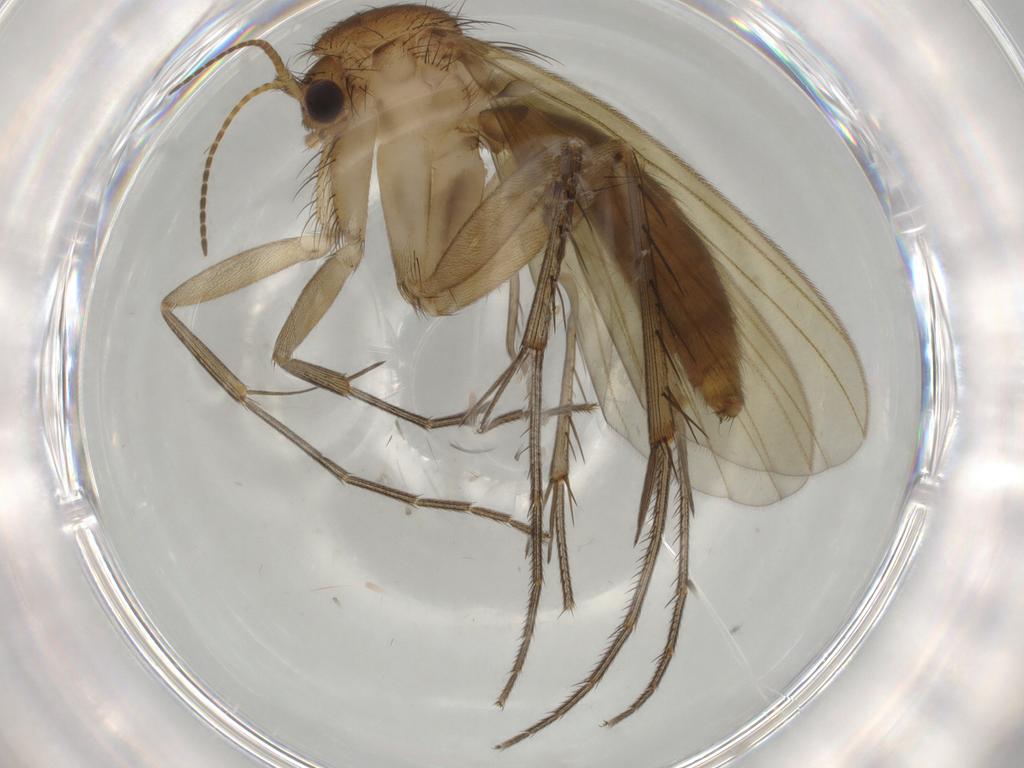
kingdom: Animalia
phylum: Arthropoda
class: Insecta
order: Diptera
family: Mycetophilidae
